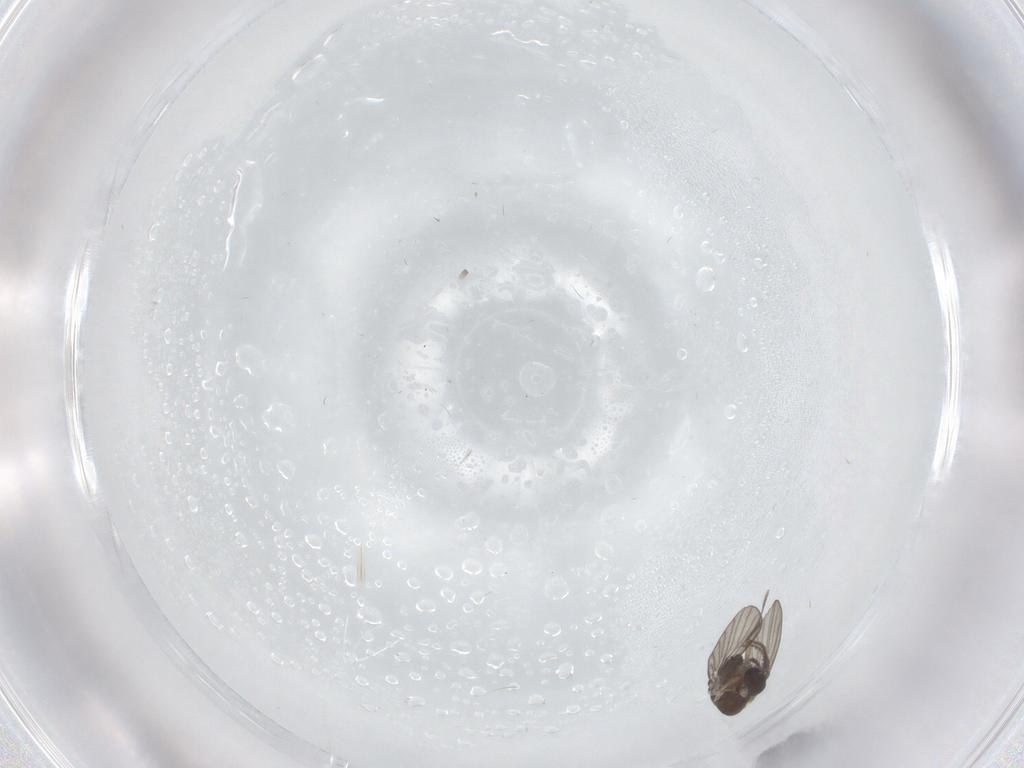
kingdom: Animalia
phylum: Arthropoda
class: Insecta
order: Diptera
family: Psychodidae
